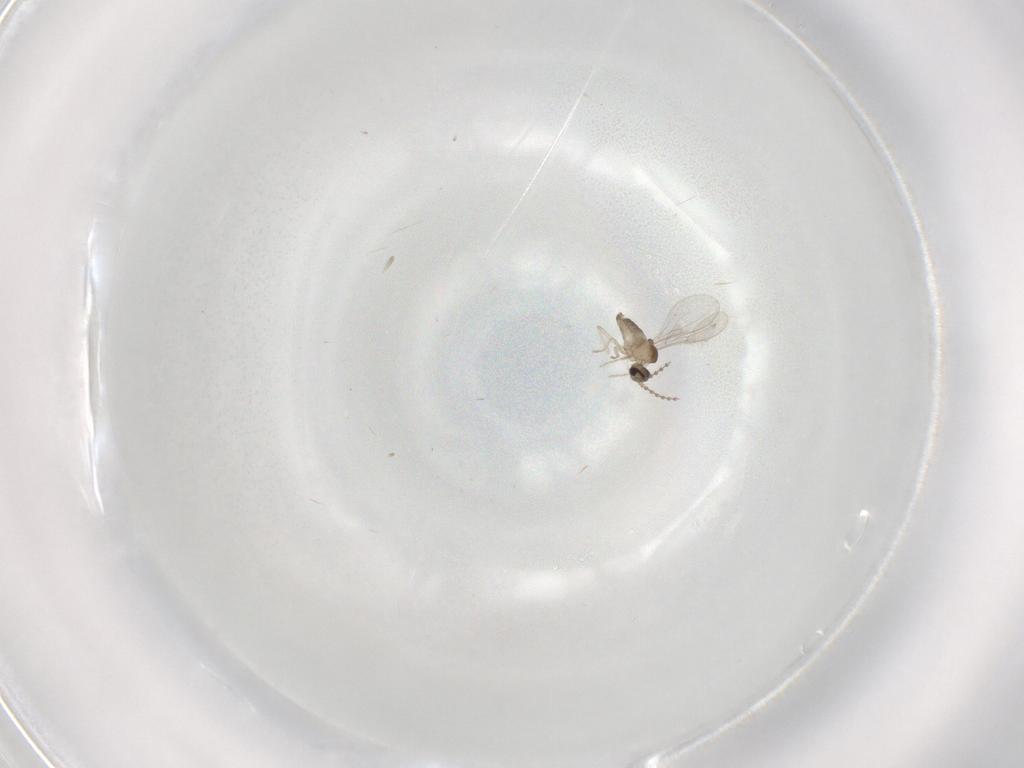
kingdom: Animalia
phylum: Arthropoda
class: Insecta
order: Diptera
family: Cecidomyiidae
